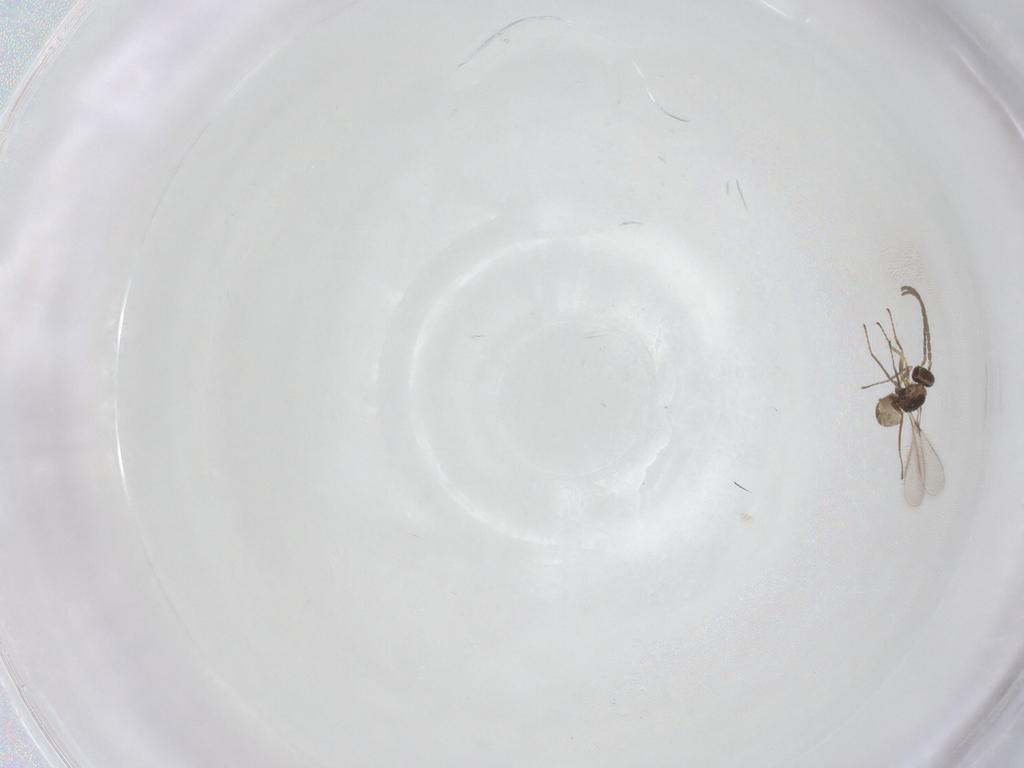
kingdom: Animalia
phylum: Arthropoda
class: Insecta
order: Hymenoptera
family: Mymaridae
